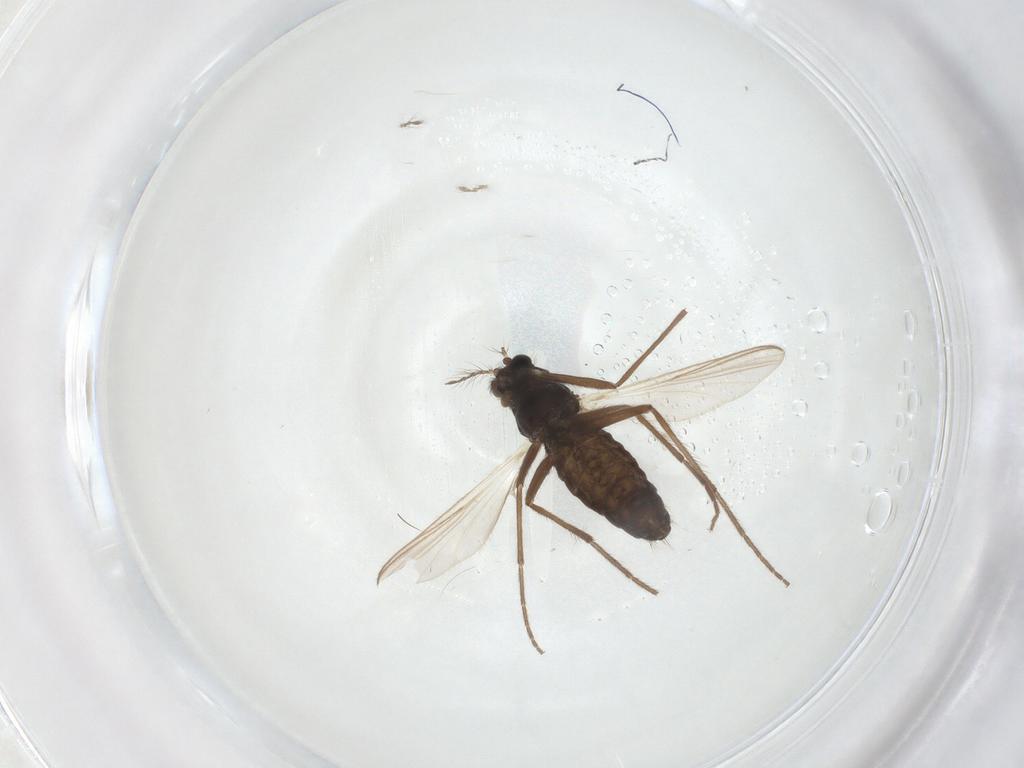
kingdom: Animalia
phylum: Arthropoda
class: Insecta
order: Diptera
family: Chironomidae
